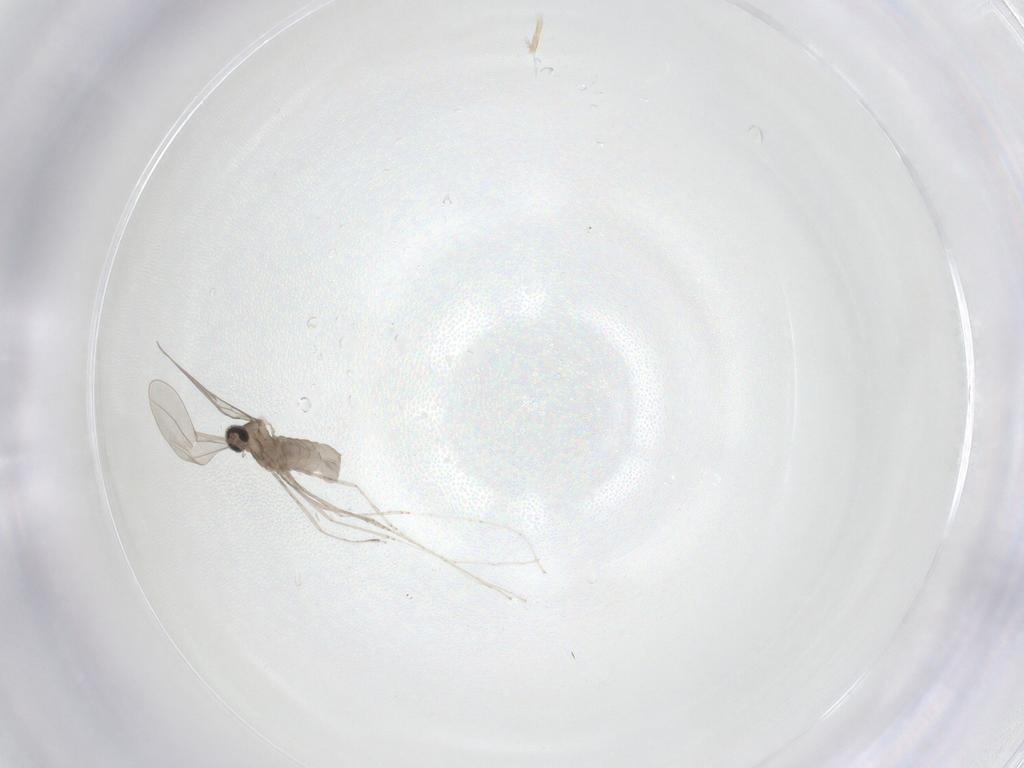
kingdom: Animalia
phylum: Arthropoda
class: Insecta
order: Diptera
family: Cecidomyiidae
